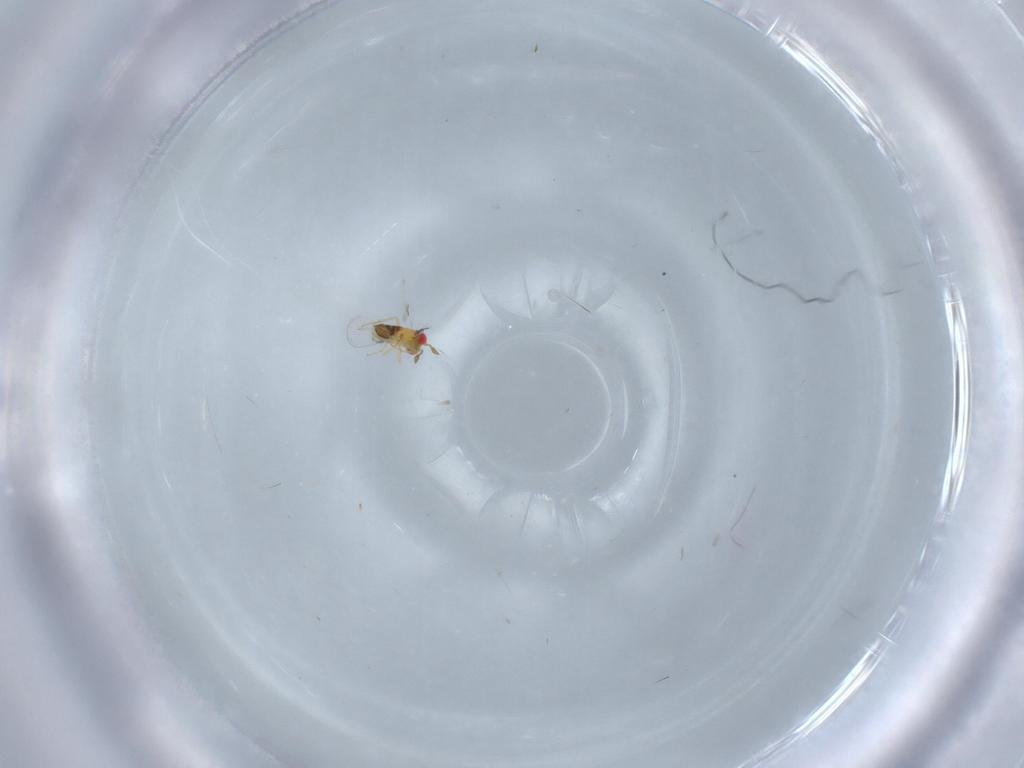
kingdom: Animalia
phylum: Arthropoda
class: Insecta
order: Hymenoptera
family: Trichogrammatidae
